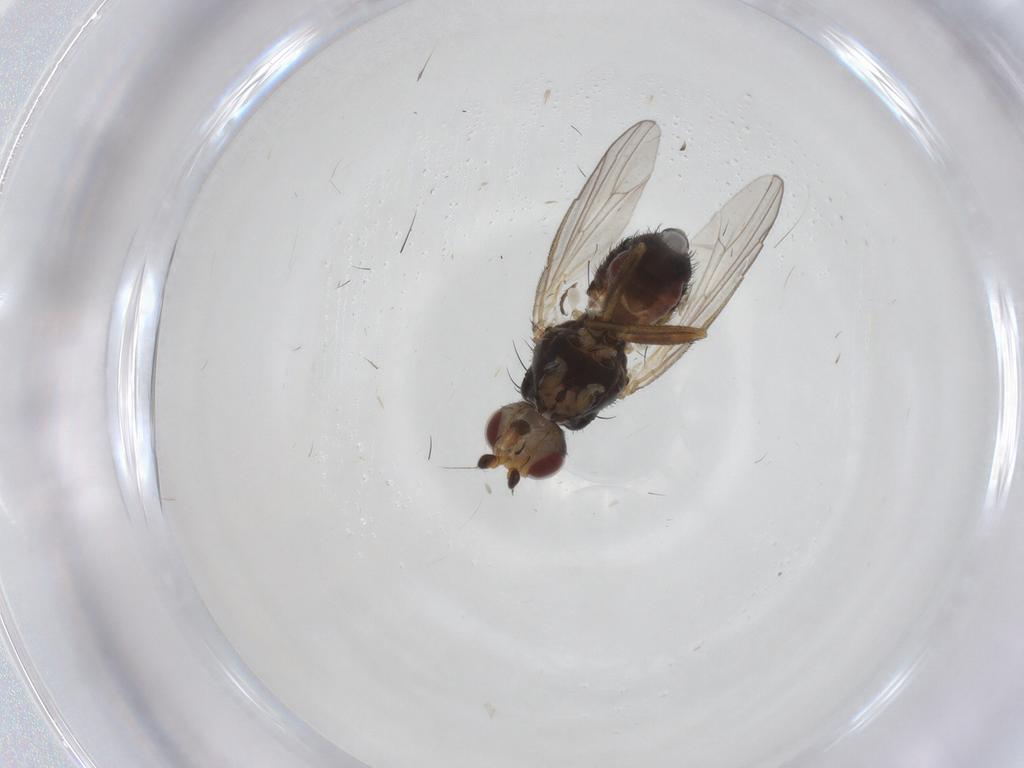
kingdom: Animalia
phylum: Arthropoda
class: Insecta
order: Diptera
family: Heleomyzidae
